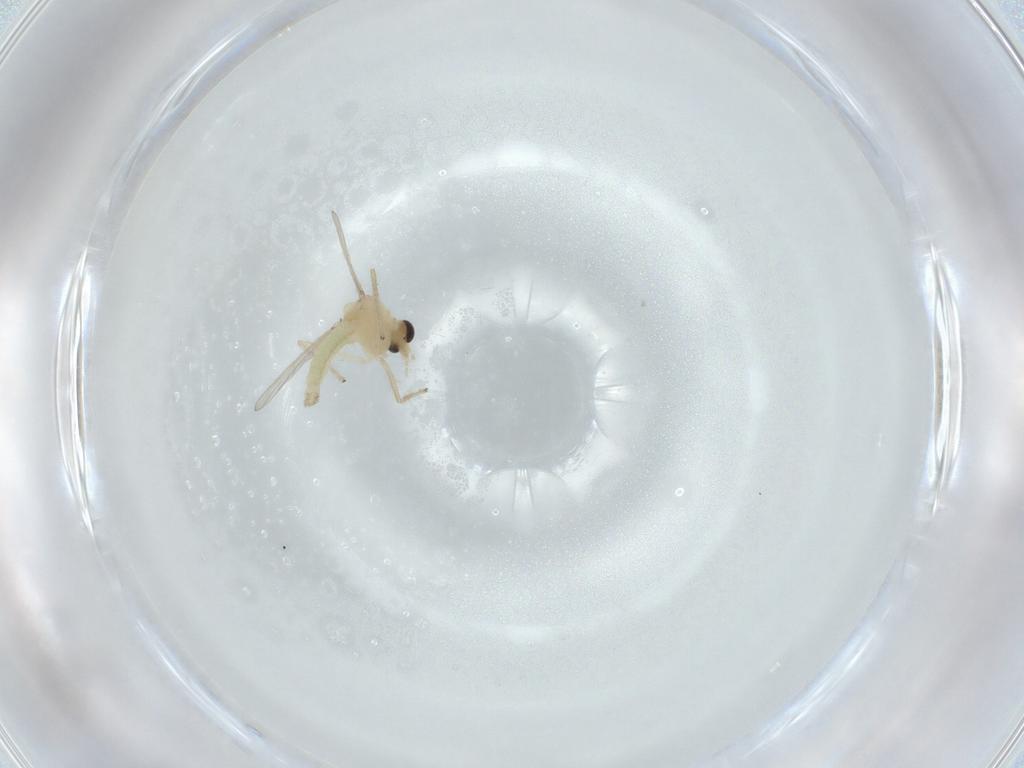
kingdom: Animalia
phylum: Arthropoda
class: Insecta
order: Diptera
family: Chironomidae
